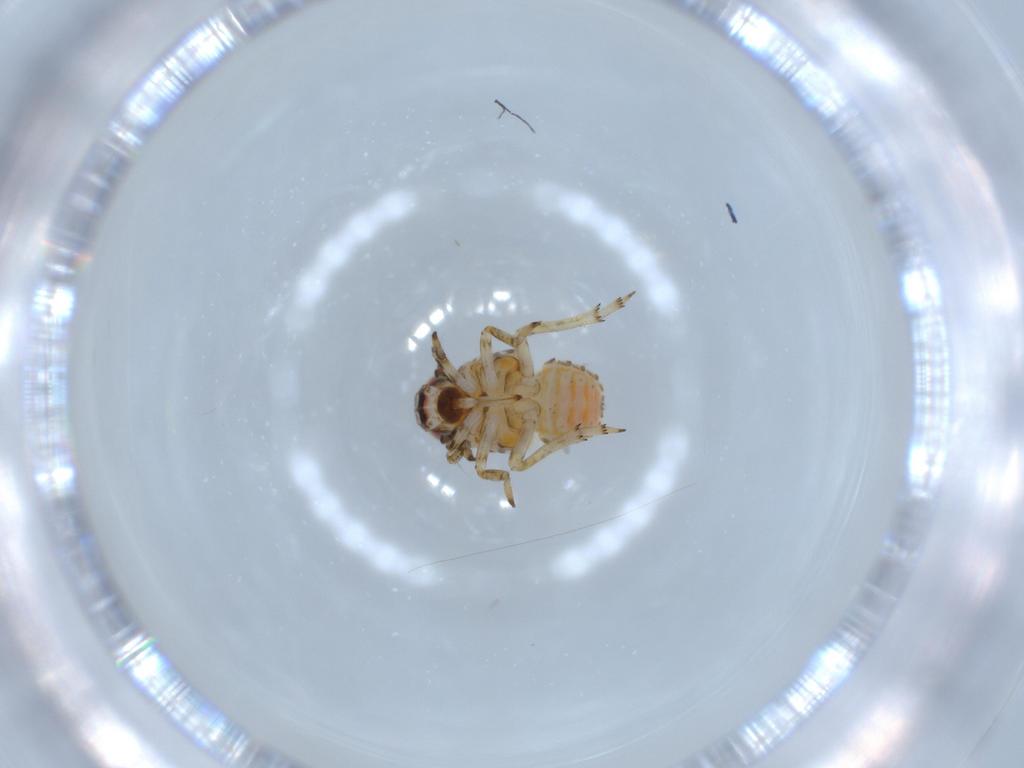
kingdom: Animalia
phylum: Arthropoda
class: Insecta
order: Hemiptera
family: Issidae
